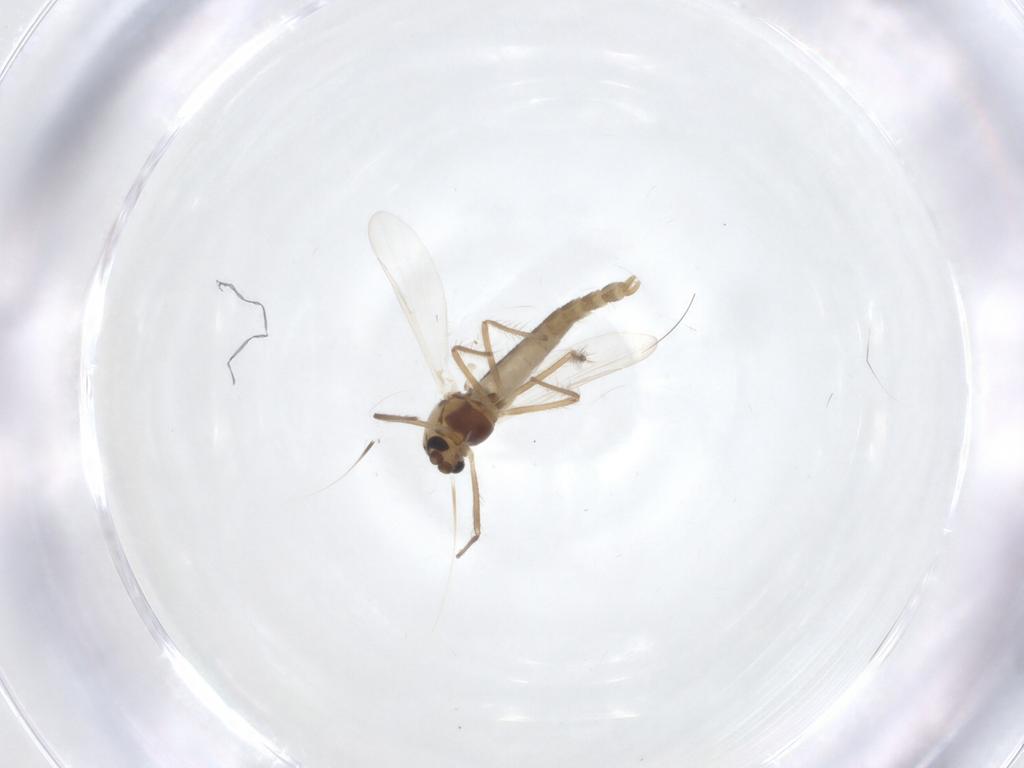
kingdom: Animalia
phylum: Arthropoda
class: Insecta
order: Diptera
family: Chironomidae
